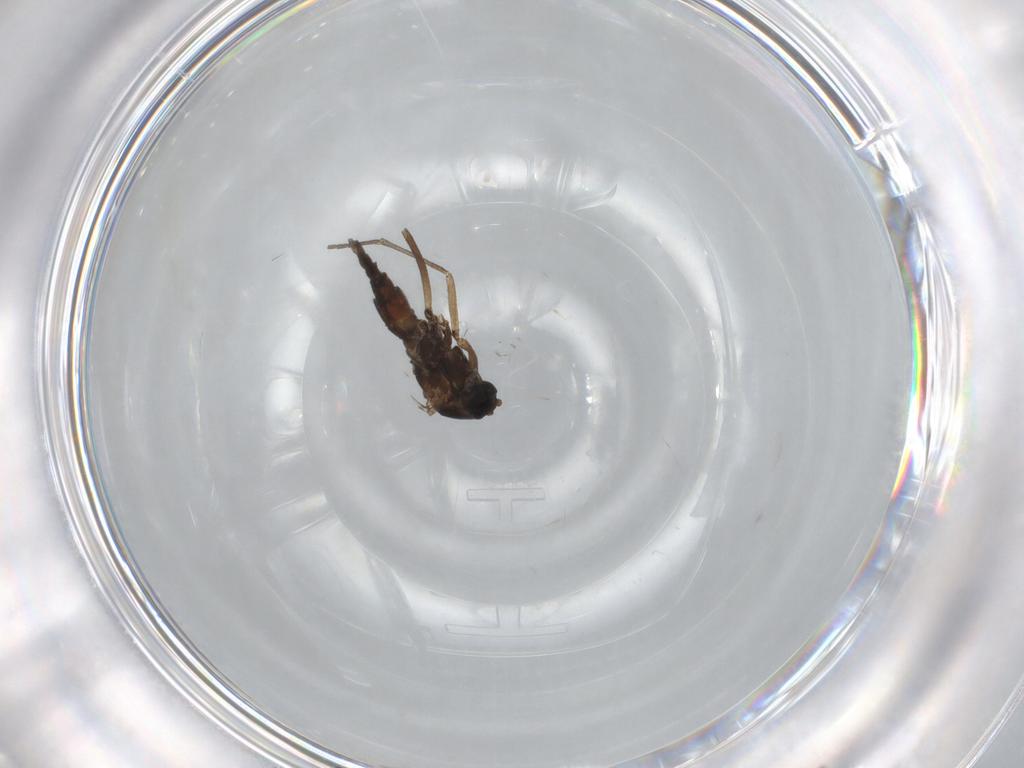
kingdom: Animalia
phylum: Arthropoda
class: Insecta
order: Diptera
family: Sciaridae
